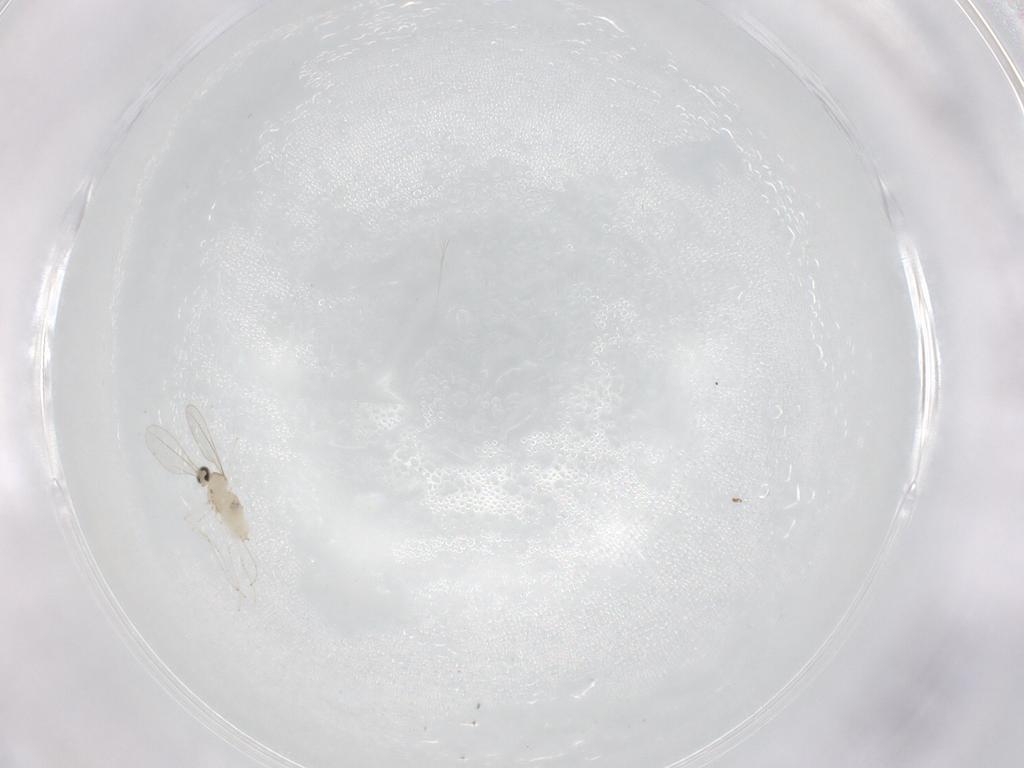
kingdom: Animalia
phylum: Arthropoda
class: Insecta
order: Diptera
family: Cecidomyiidae
